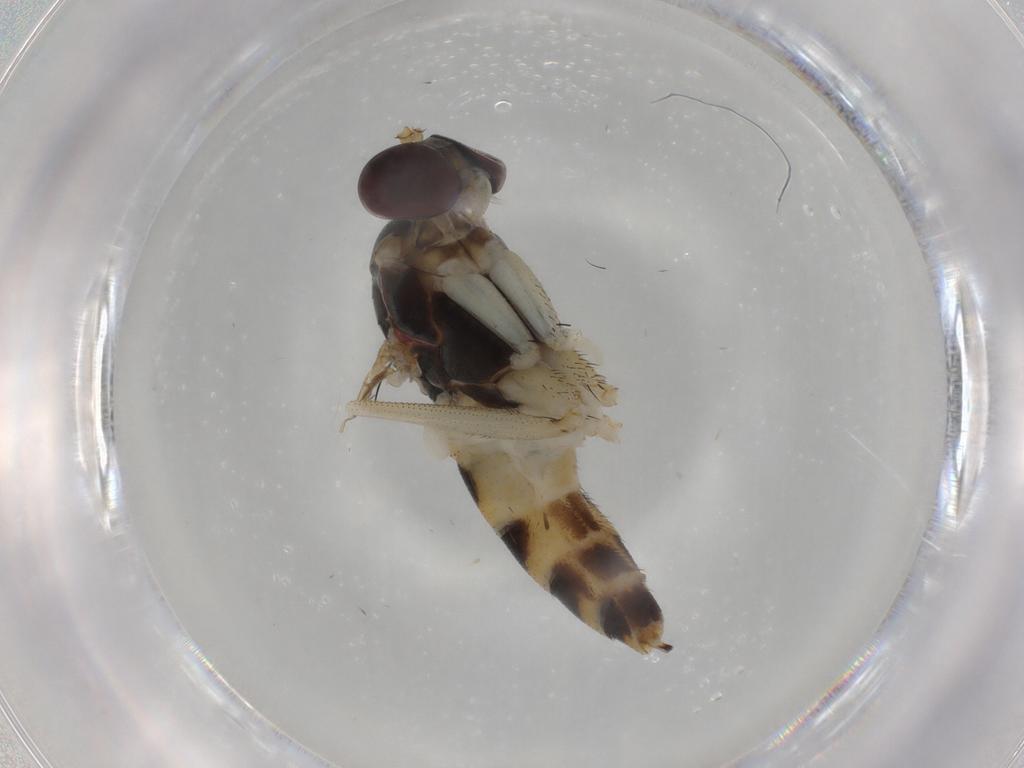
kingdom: Animalia
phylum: Arthropoda
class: Insecta
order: Diptera
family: Dolichopodidae
